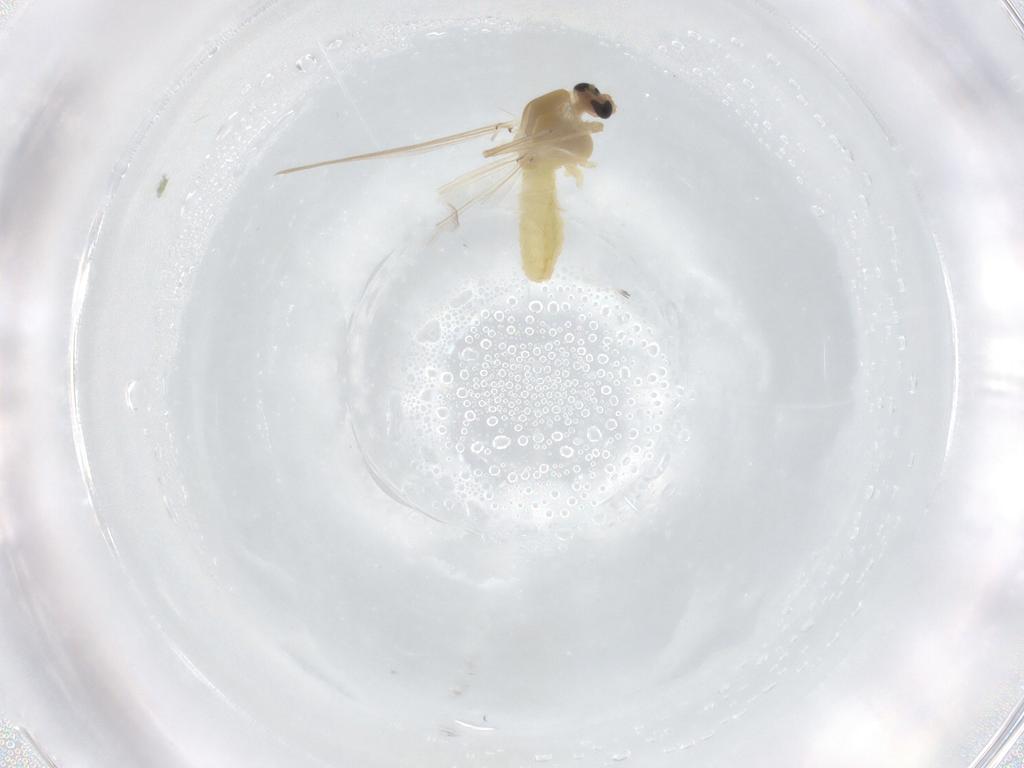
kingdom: Animalia
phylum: Arthropoda
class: Insecta
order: Diptera
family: Chironomidae
